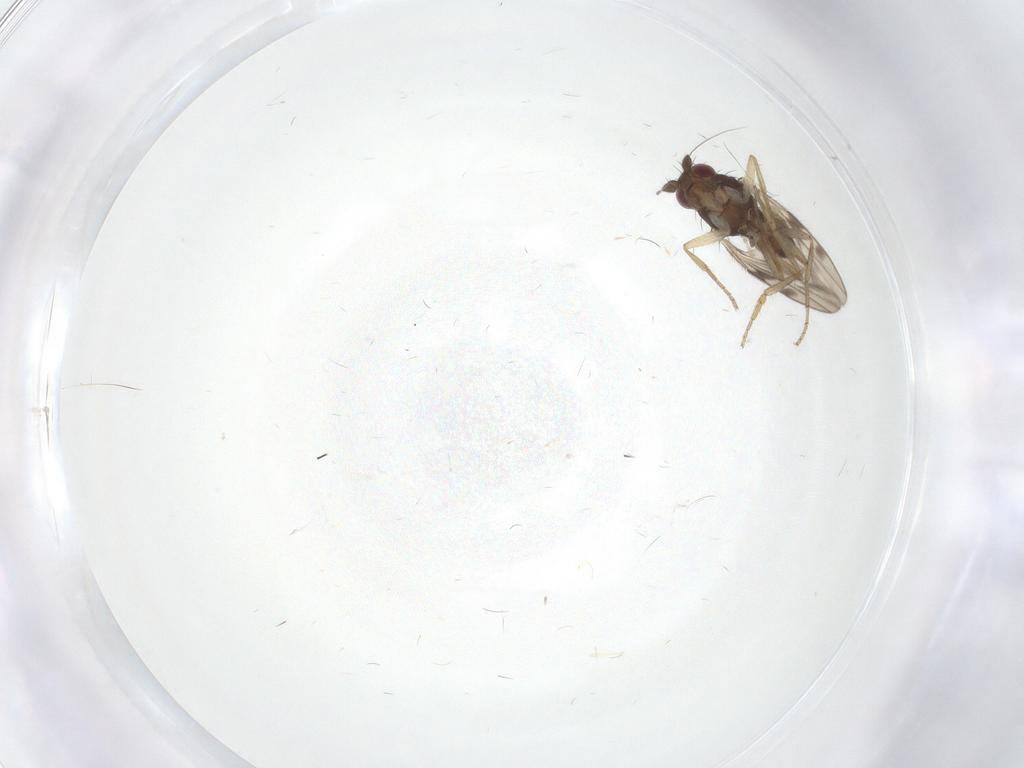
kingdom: Animalia
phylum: Arthropoda
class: Insecta
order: Diptera
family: Sphaeroceridae
